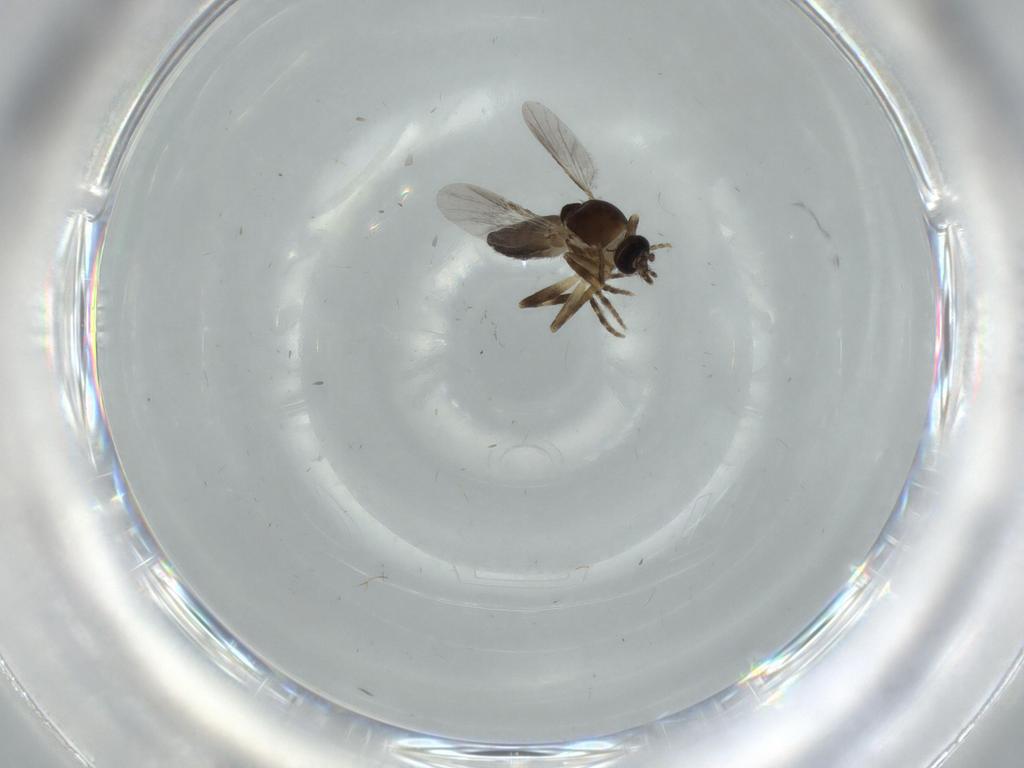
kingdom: Animalia
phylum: Arthropoda
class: Insecta
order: Diptera
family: Ceratopogonidae
